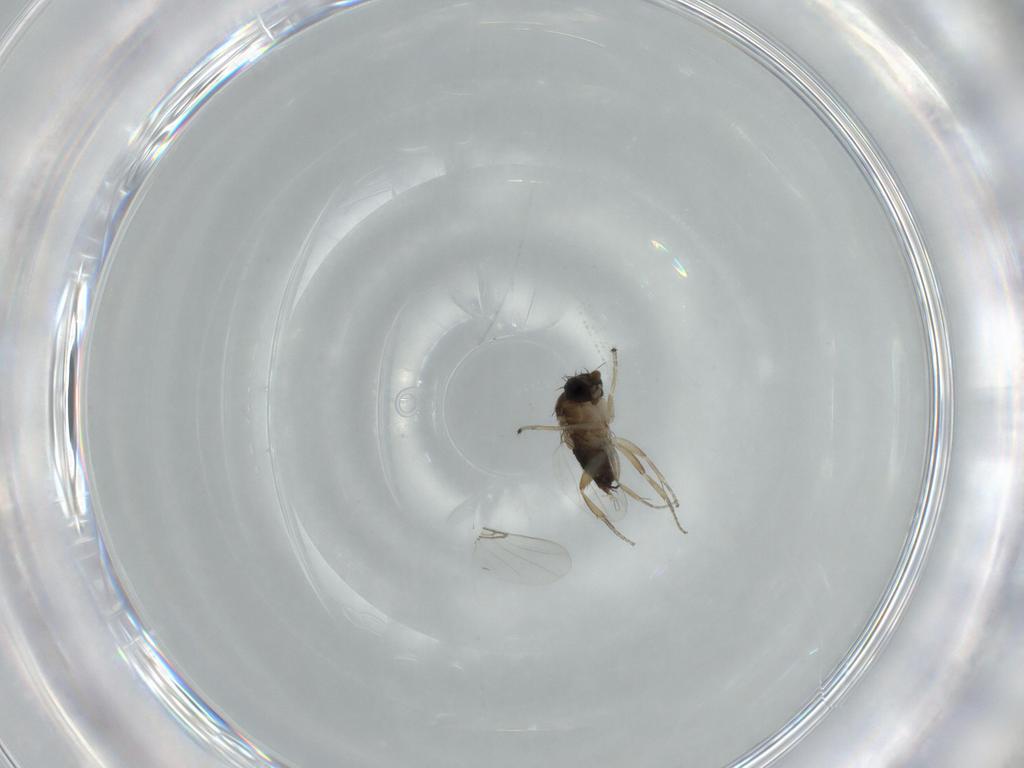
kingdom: Animalia
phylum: Arthropoda
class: Insecta
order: Diptera
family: Phoridae
